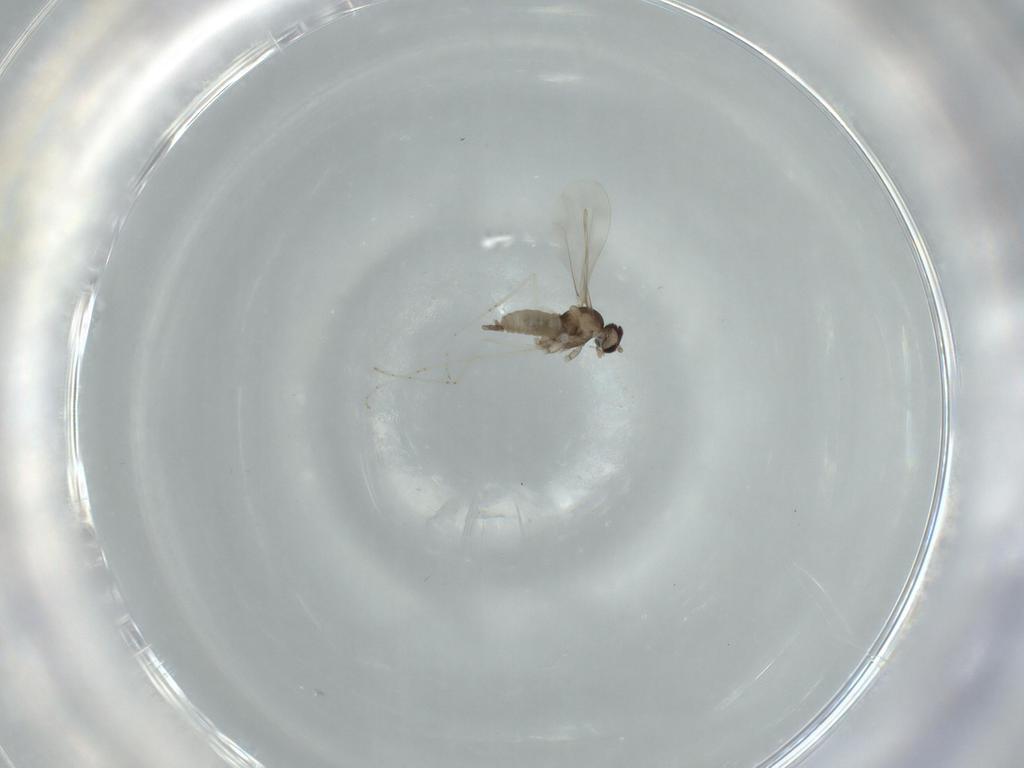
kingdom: Animalia
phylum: Arthropoda
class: Insecta
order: Diptera
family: Cecidomyiidae
